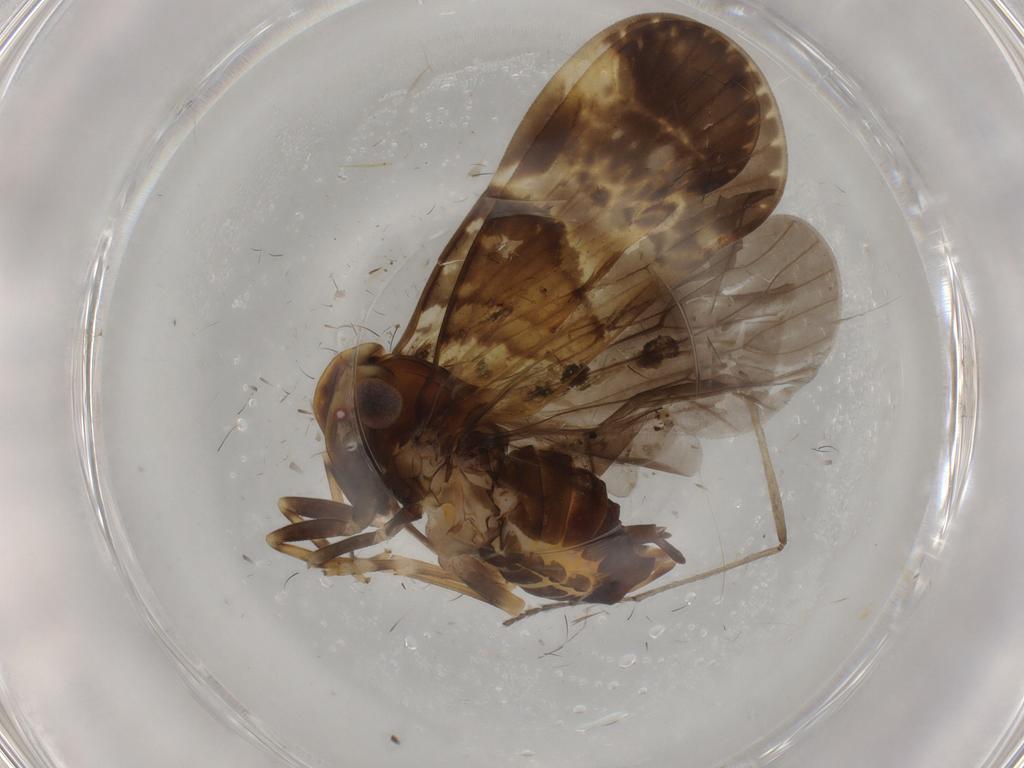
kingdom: Animalia
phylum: Arthropoda
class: Insecta
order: Hemiptera
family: Cixiidae
